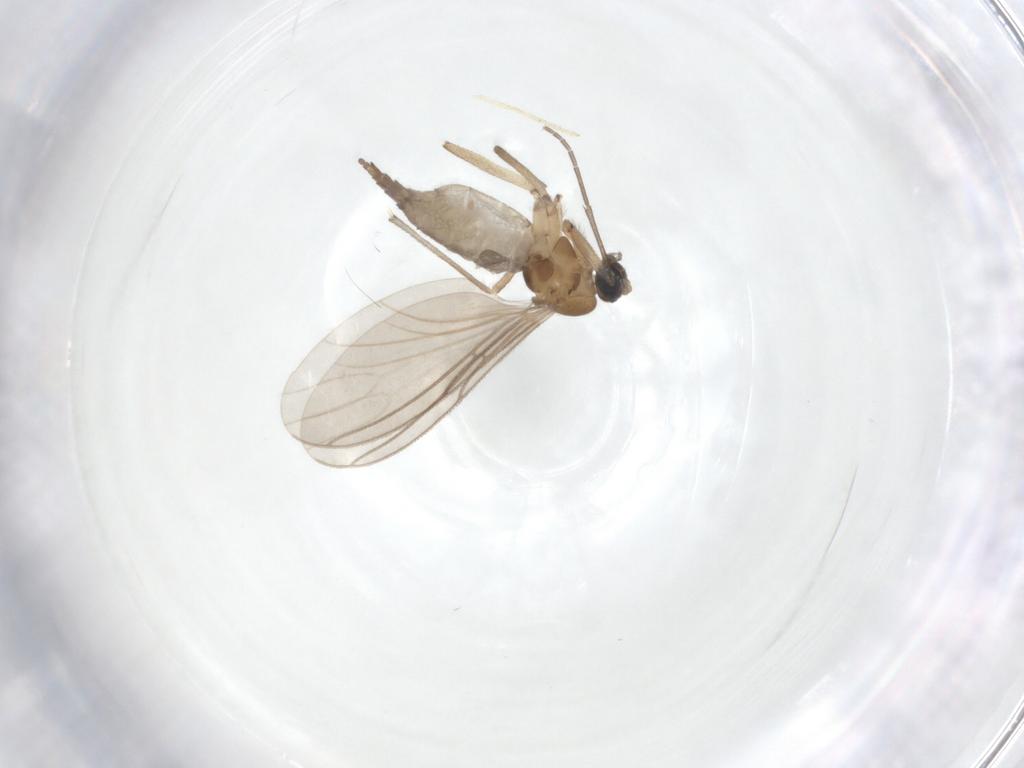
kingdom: Animalia
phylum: Arthropoda
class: Insecta
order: Diptera
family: Sciaridae
